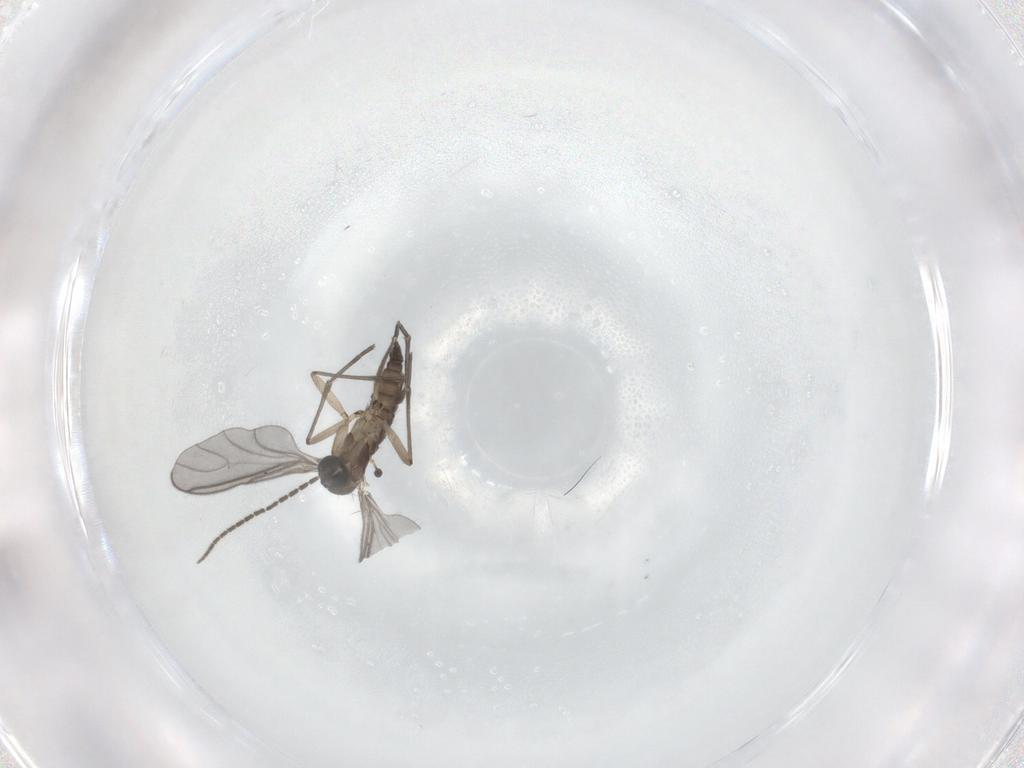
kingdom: Animalia
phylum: Arthropoda
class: Insecta
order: Diptera
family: Sciaridae
